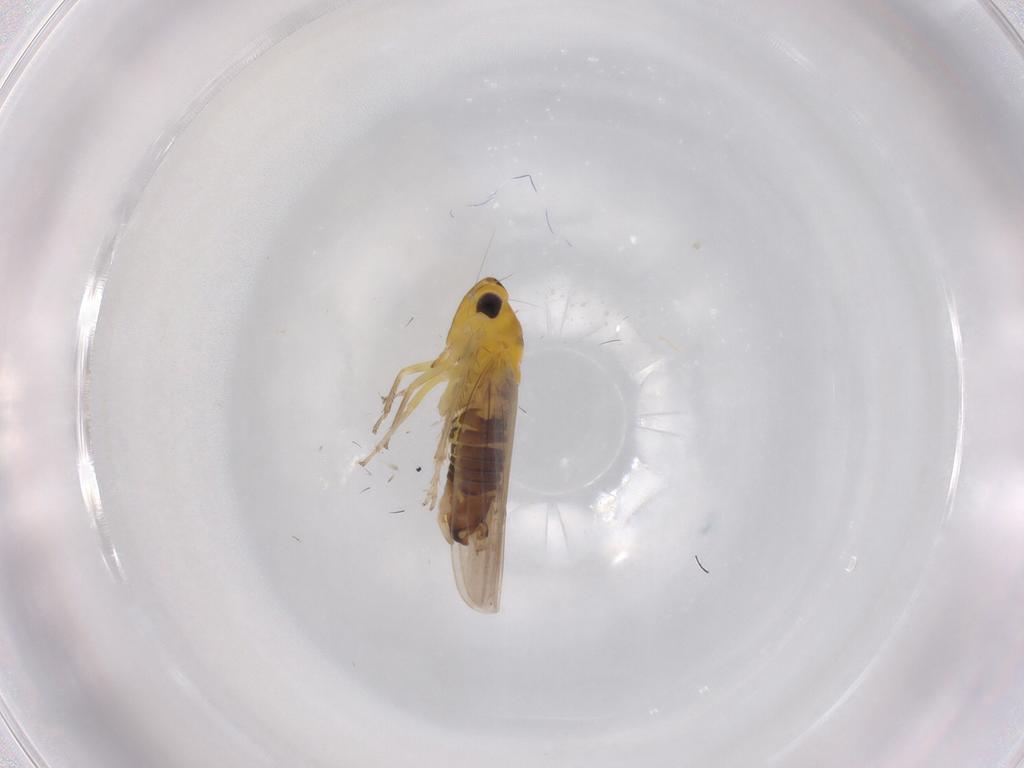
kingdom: Animalia
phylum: Arthropoda
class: Insecta
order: Hemiptera
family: Cicadellidae
